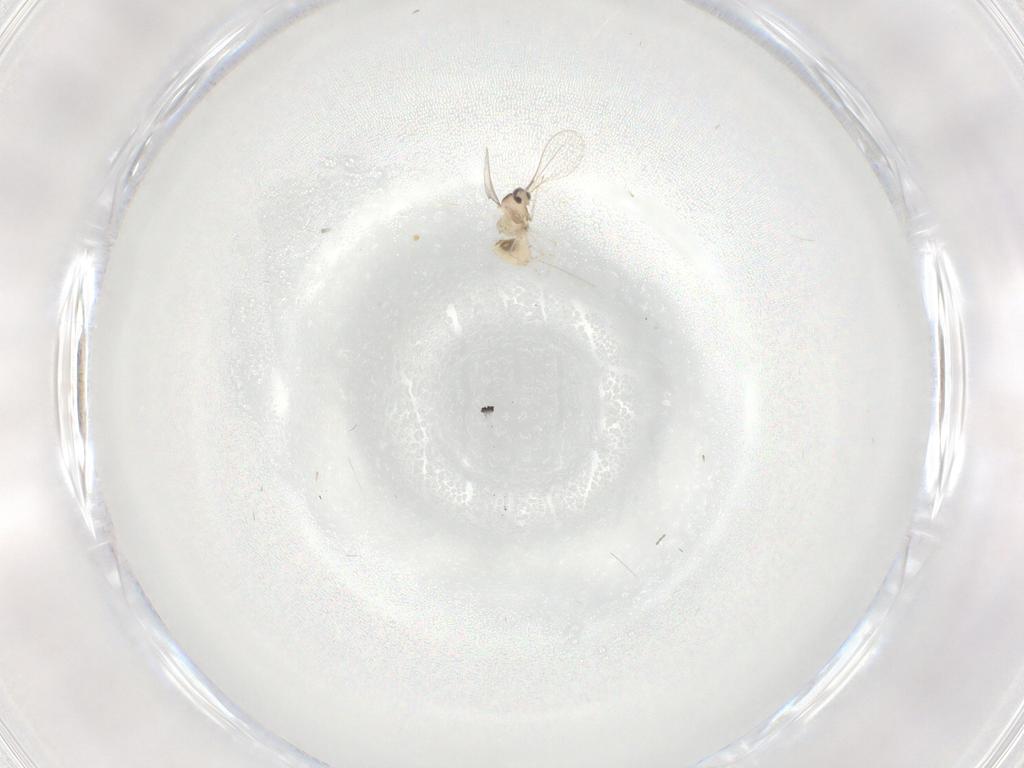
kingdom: Animalia
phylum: Arthropoda
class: Insecta
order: Diptera
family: Cecidomyiidae
